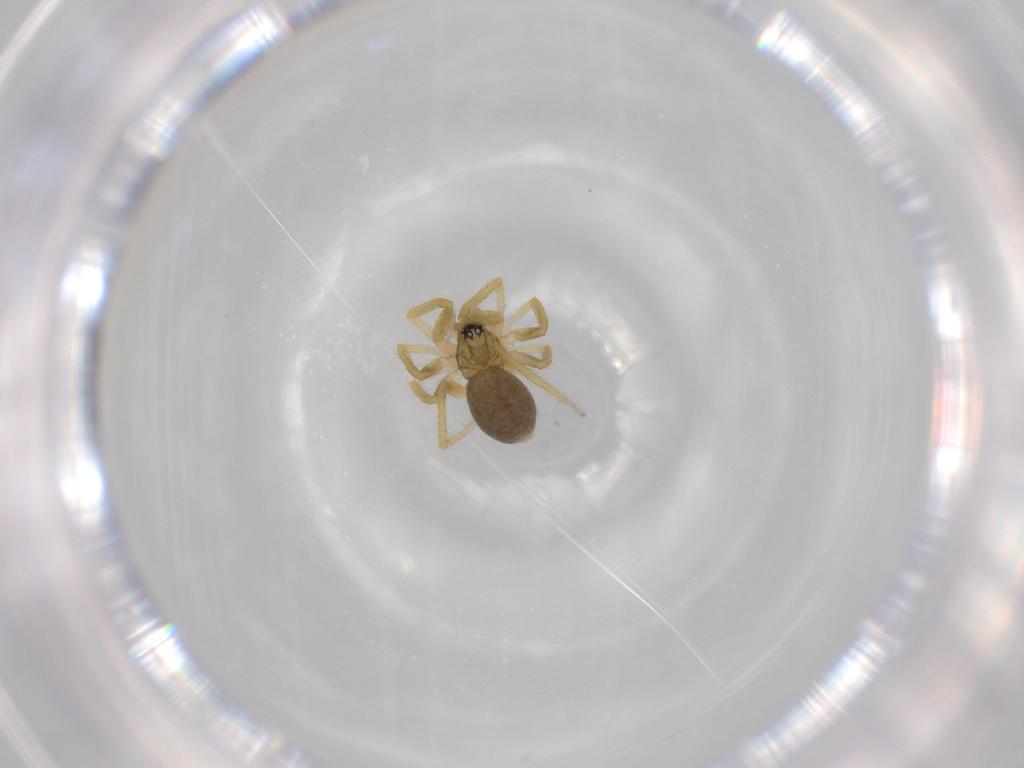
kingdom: Animalia
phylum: Arthropoda
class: Arachnida
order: Araneae
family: Linyphiidae
